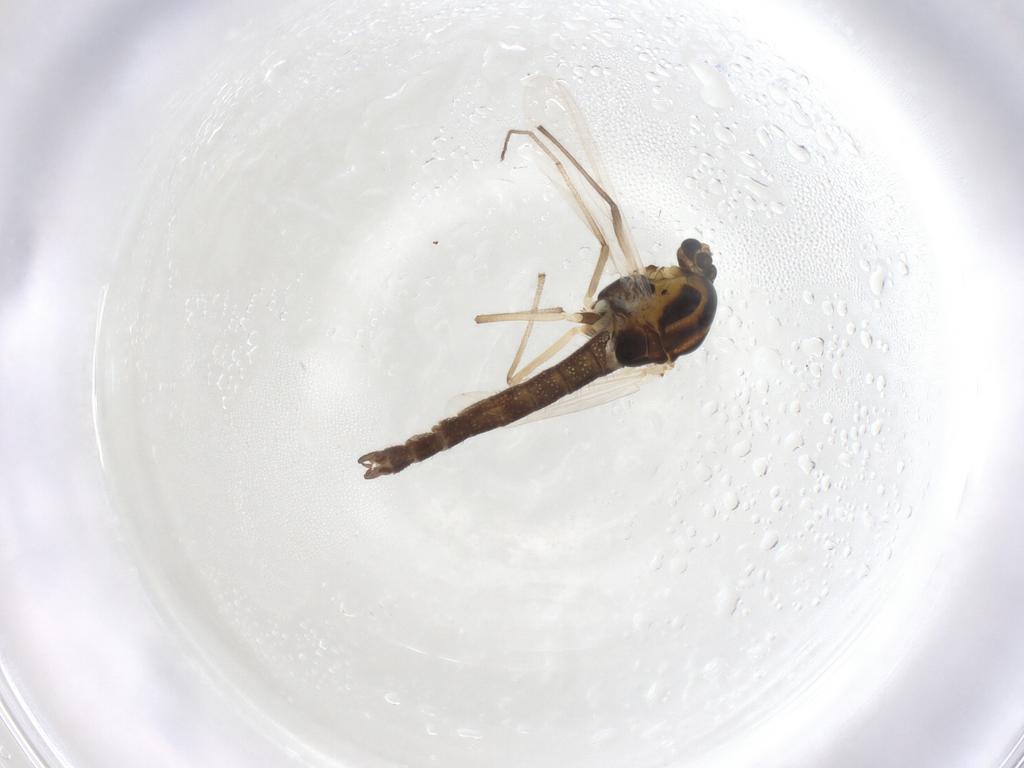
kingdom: Animalia
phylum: Arthropoda
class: Insecta
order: Diptera
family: Chironomidae
